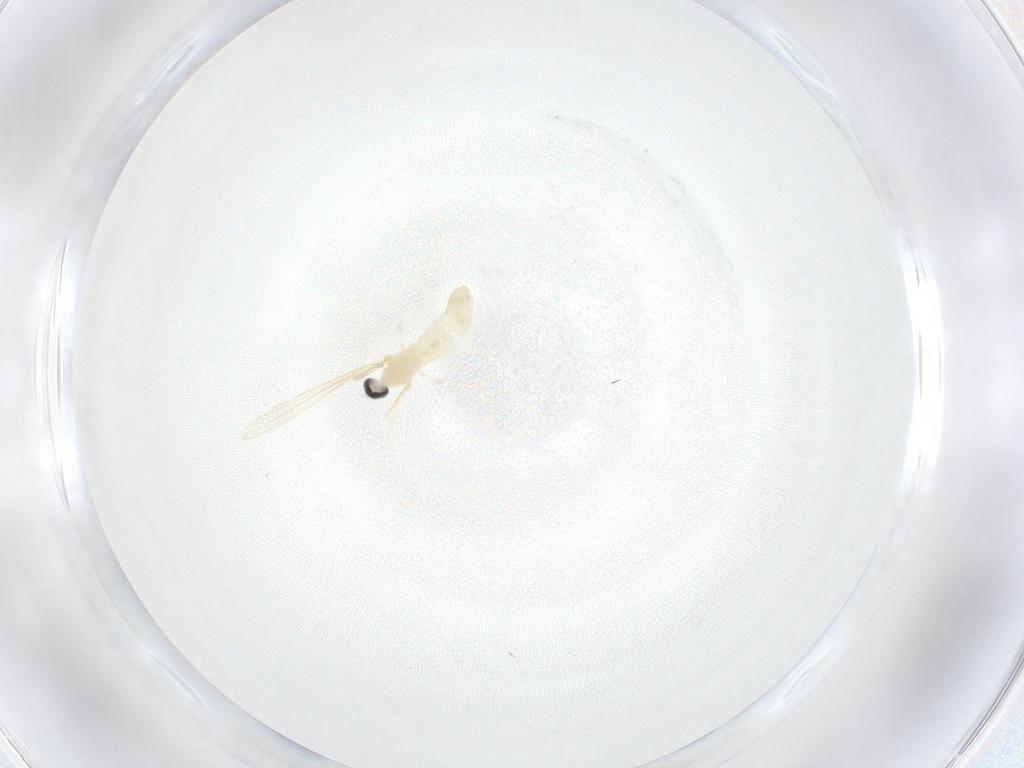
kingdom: Animalia
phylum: Arthropoda
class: Insecta
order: Diptera
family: Cecidomyiidae
